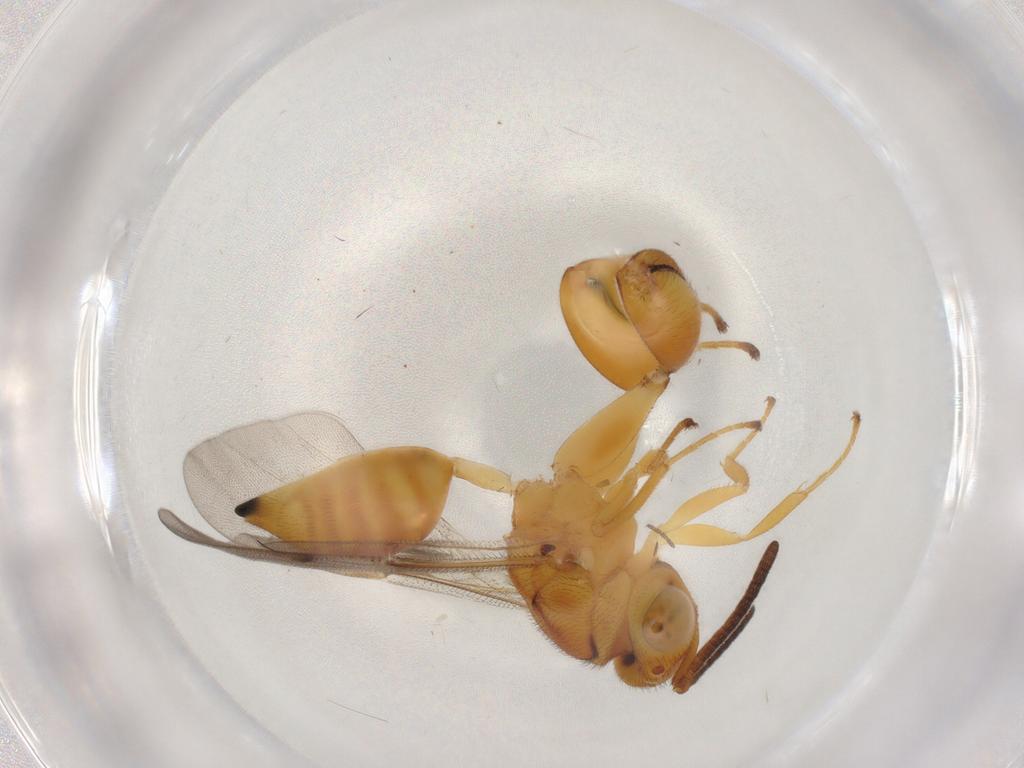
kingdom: Animalia
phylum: Arthropoda
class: Insecta
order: Hymenoptera
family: Chalcididae
